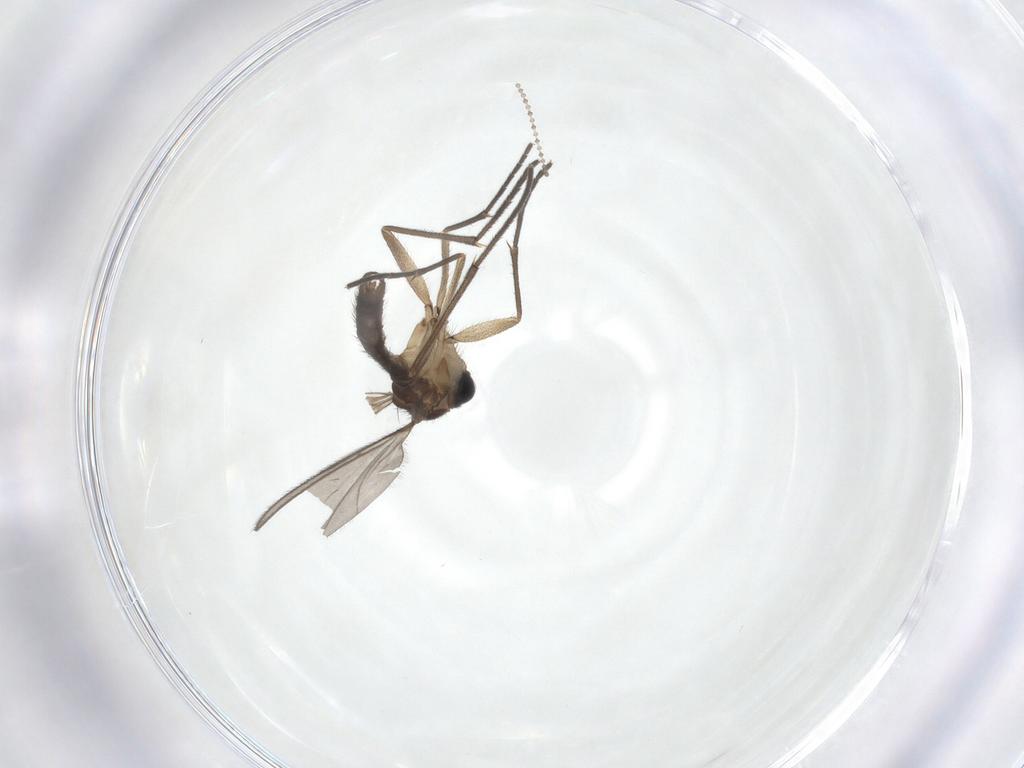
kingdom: Animalia
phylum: Arthropoda
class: Insecta
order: Diptera
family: Sciaridae
